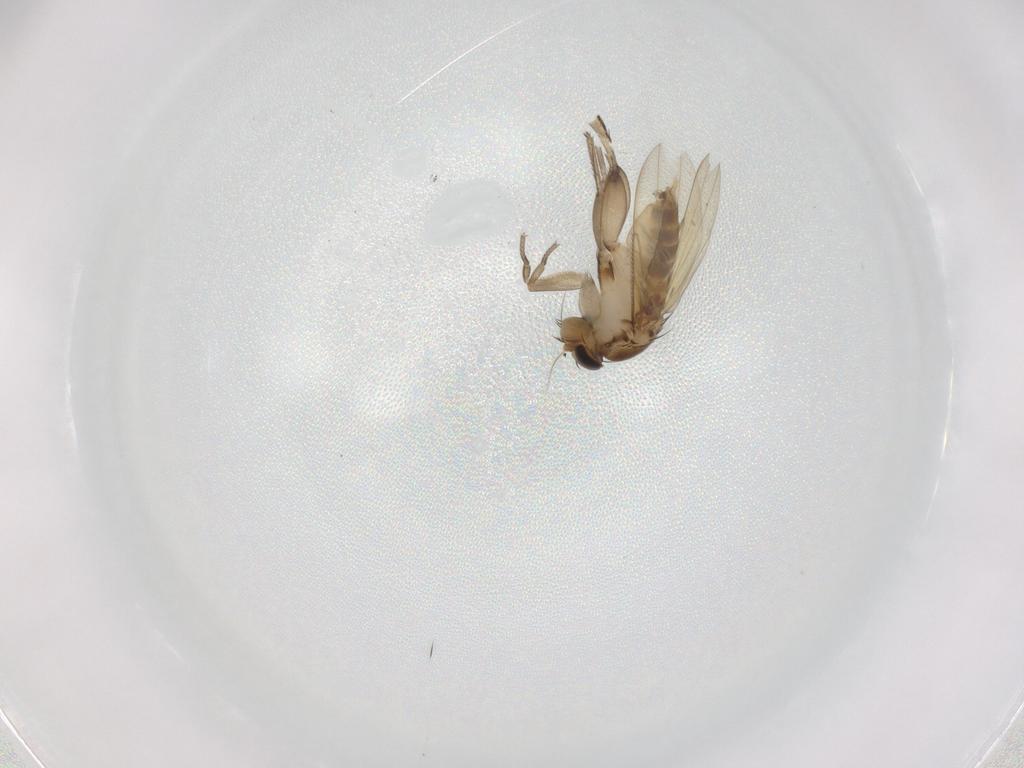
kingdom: Animalia
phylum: Arthropoda
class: Insecta
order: Diptera
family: Phoridae
